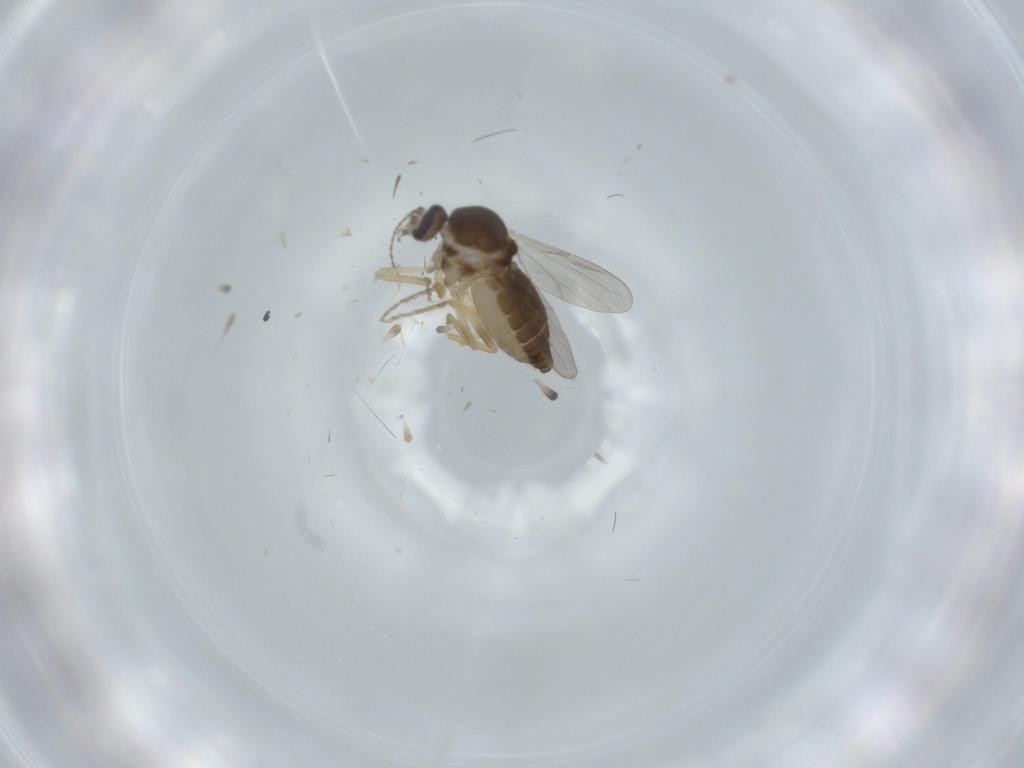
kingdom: Animalia
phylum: Arthropoda
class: Insecta
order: Diptera
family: Ceratopogonidae
